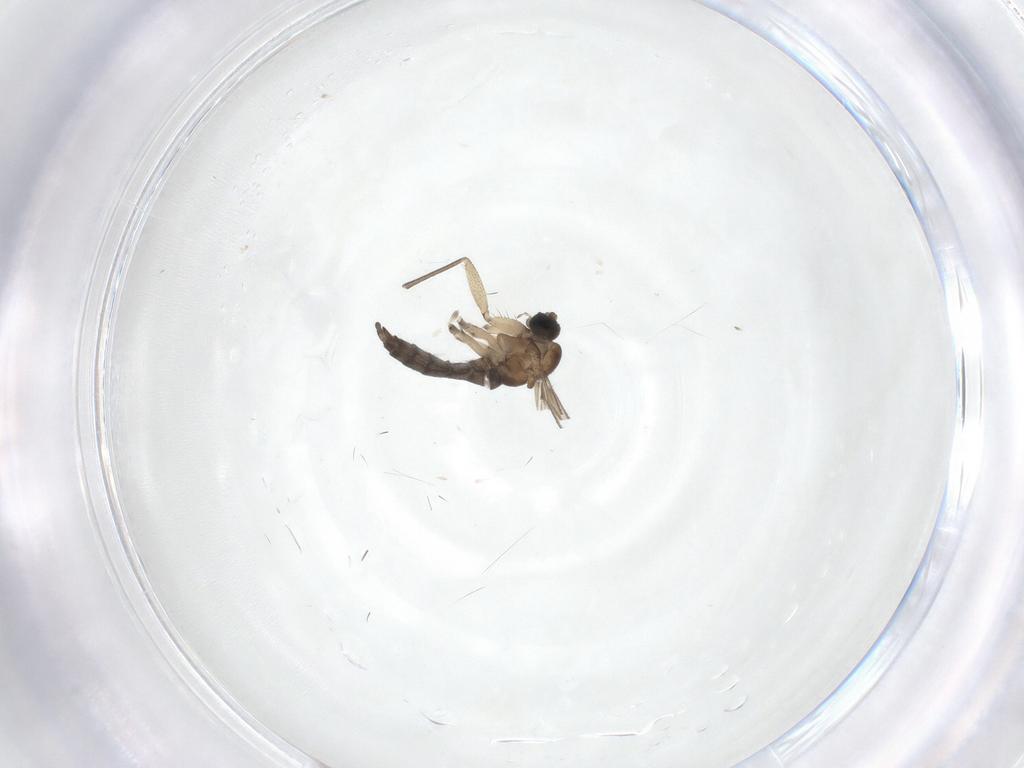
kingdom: Animalia
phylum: Arthropoda
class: Insecta
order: Diptera
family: Sciaridae
